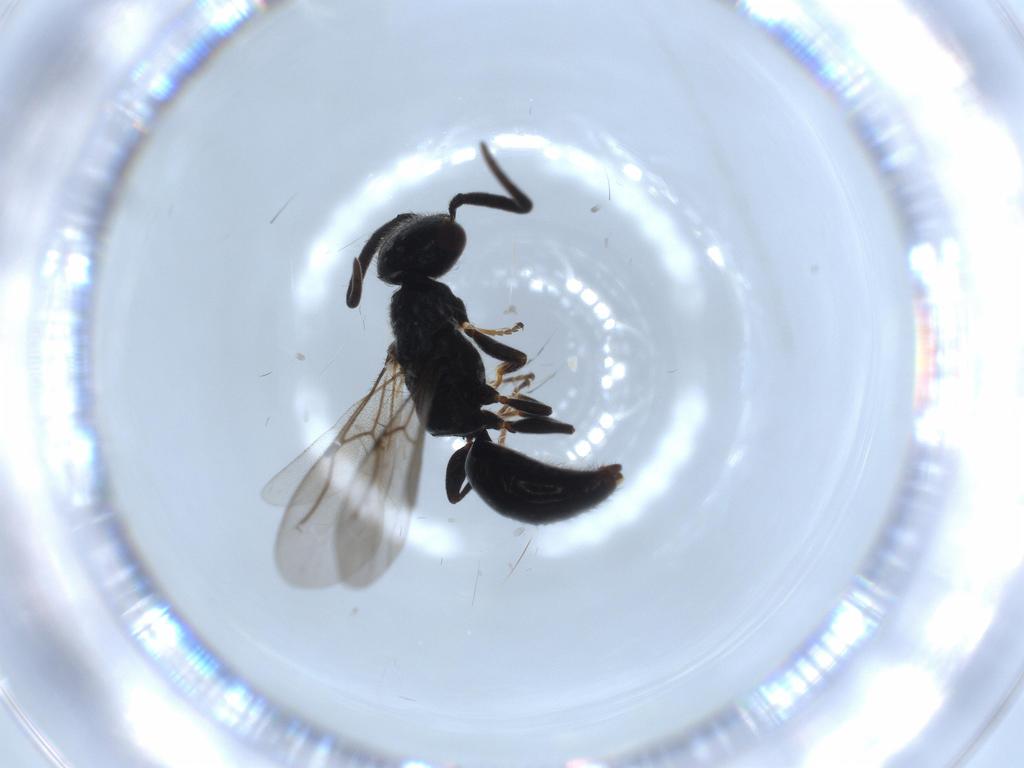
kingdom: Animalia
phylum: Arthropoda
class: Insecta
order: Hymenoptera
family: Bethylidae
